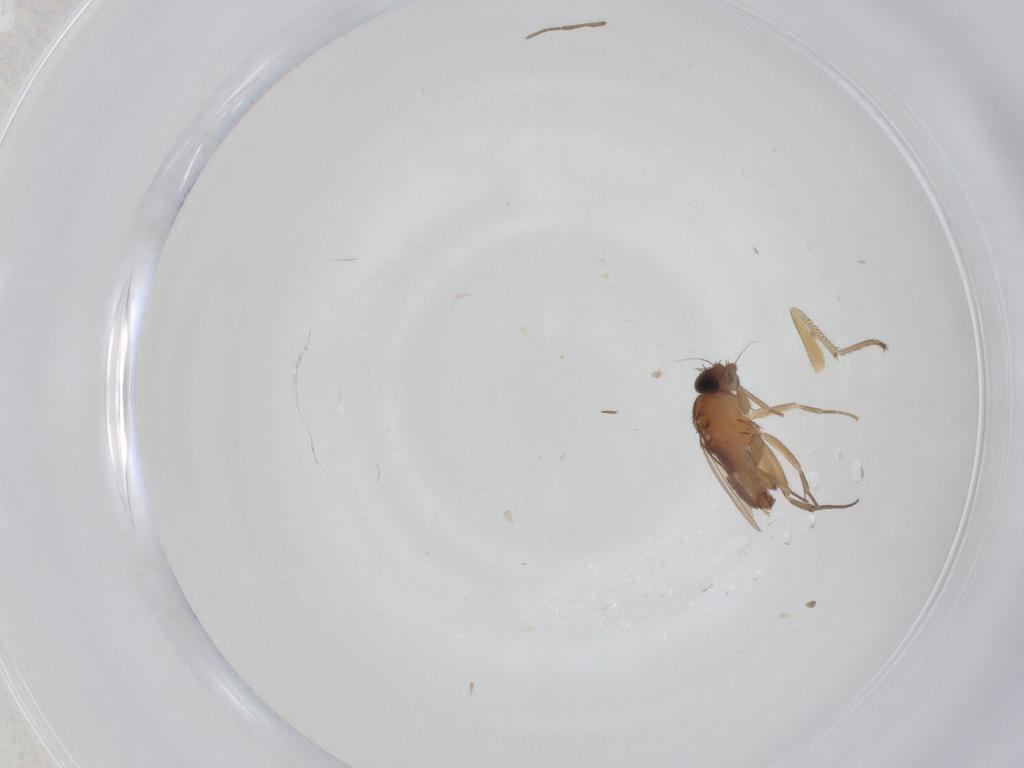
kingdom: Animalia
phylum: Arthropoda
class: Insecta
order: Diptera
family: Phoridae
